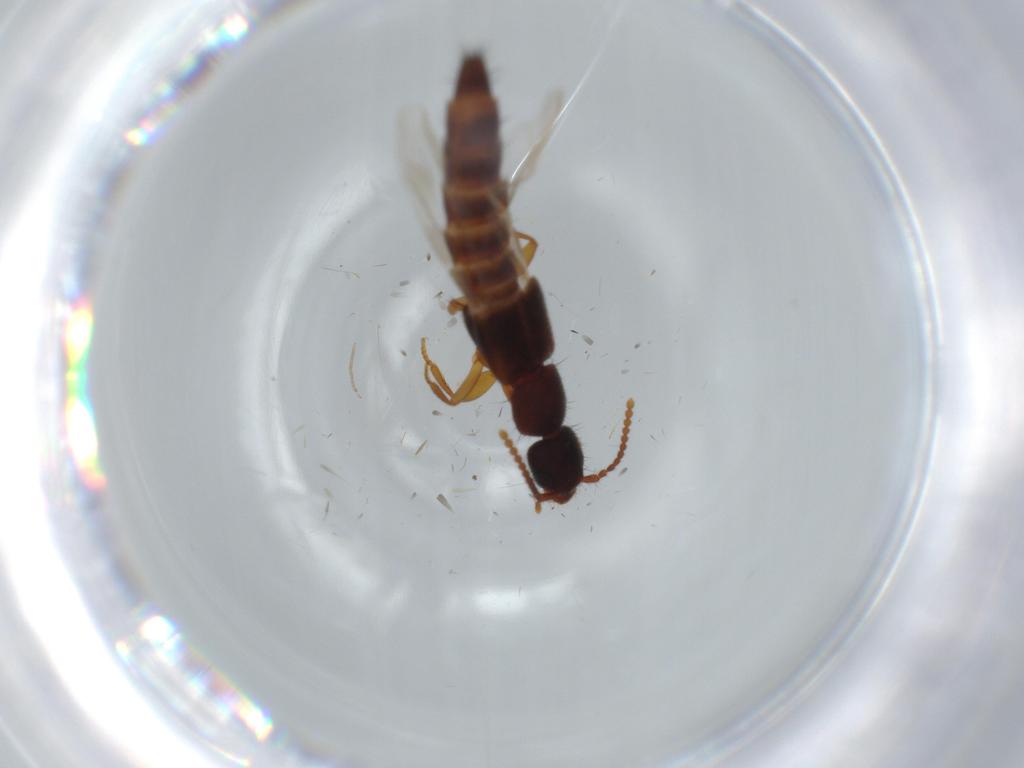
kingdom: Animalia
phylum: Arthropoda
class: Insecta
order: Coleoptera
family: Staphylinidae
